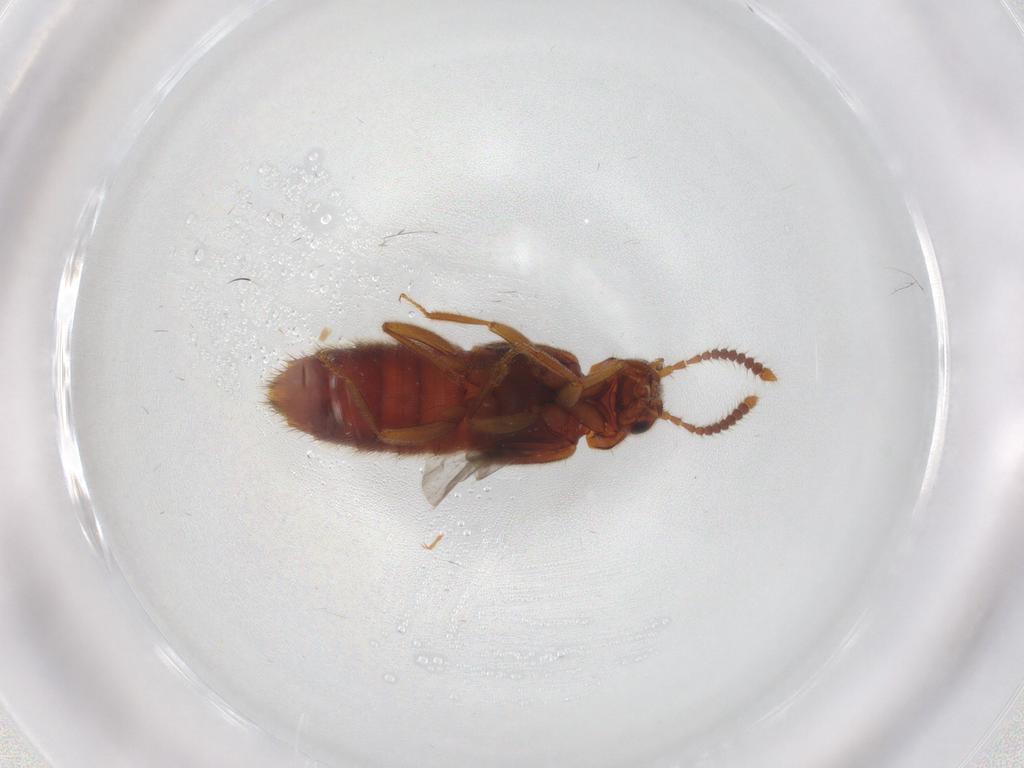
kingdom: Animalia
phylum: Arthropoda
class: Insecta
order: Coleoptera
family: Staphylinidae
